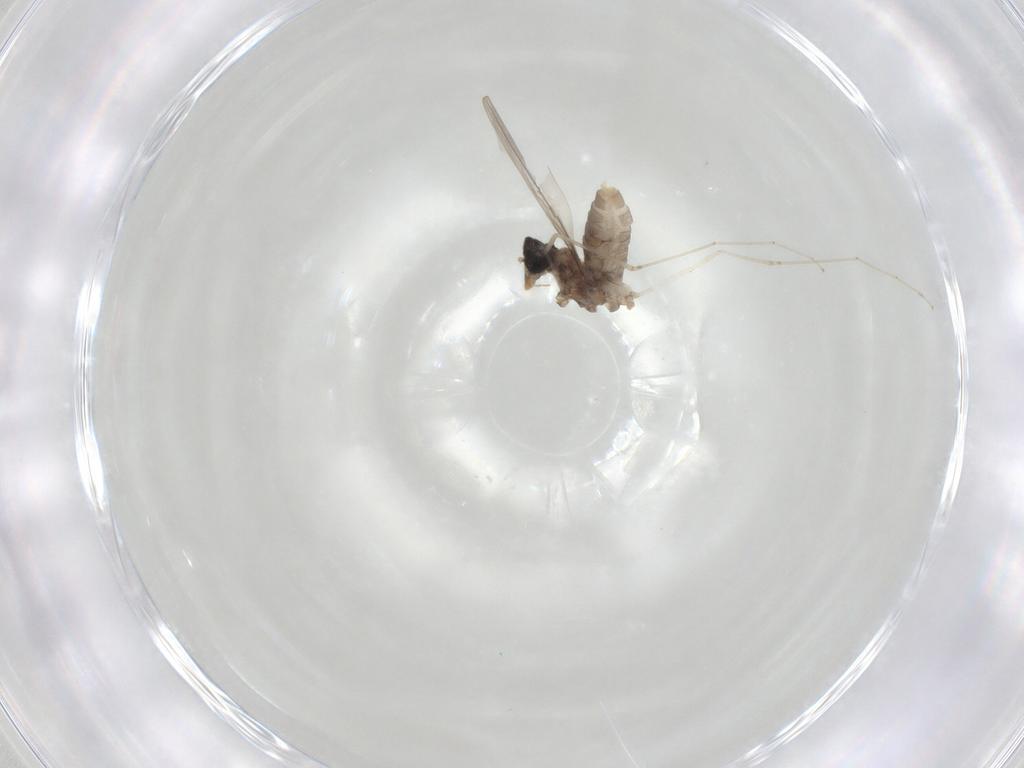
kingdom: Animalia
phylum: Arthropoda
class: Insecta
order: Diptera
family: Cecidomyiidae
